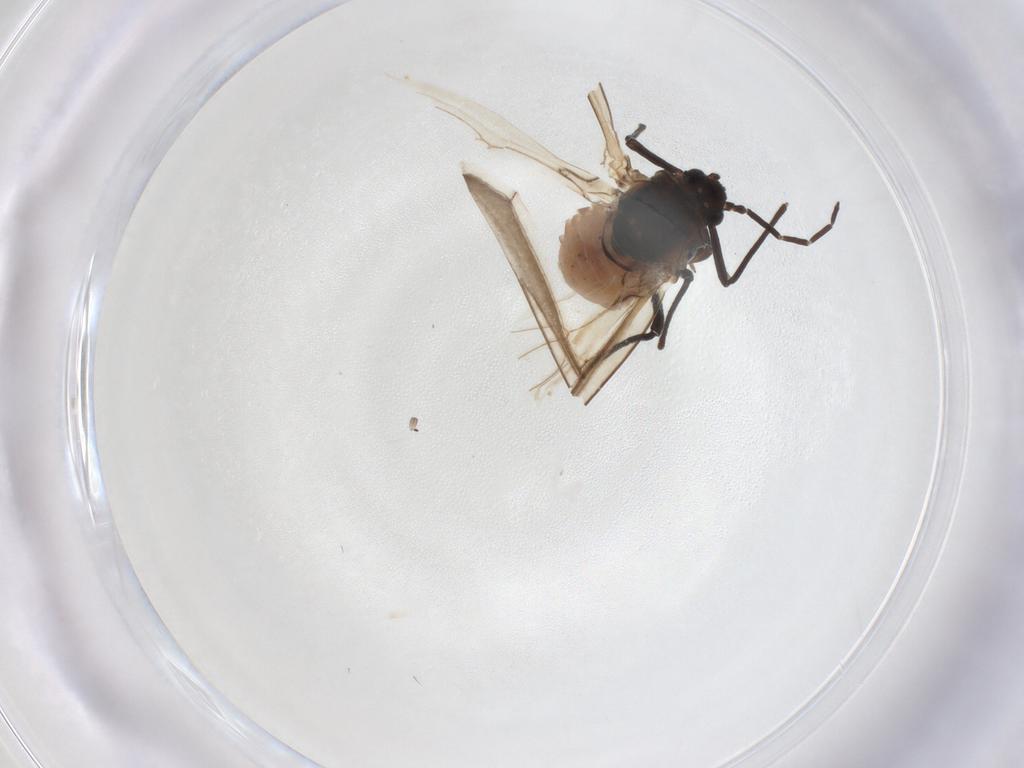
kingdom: Animalia
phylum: Arthropoda
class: Insecta
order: Hemiptera
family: Aphididae
